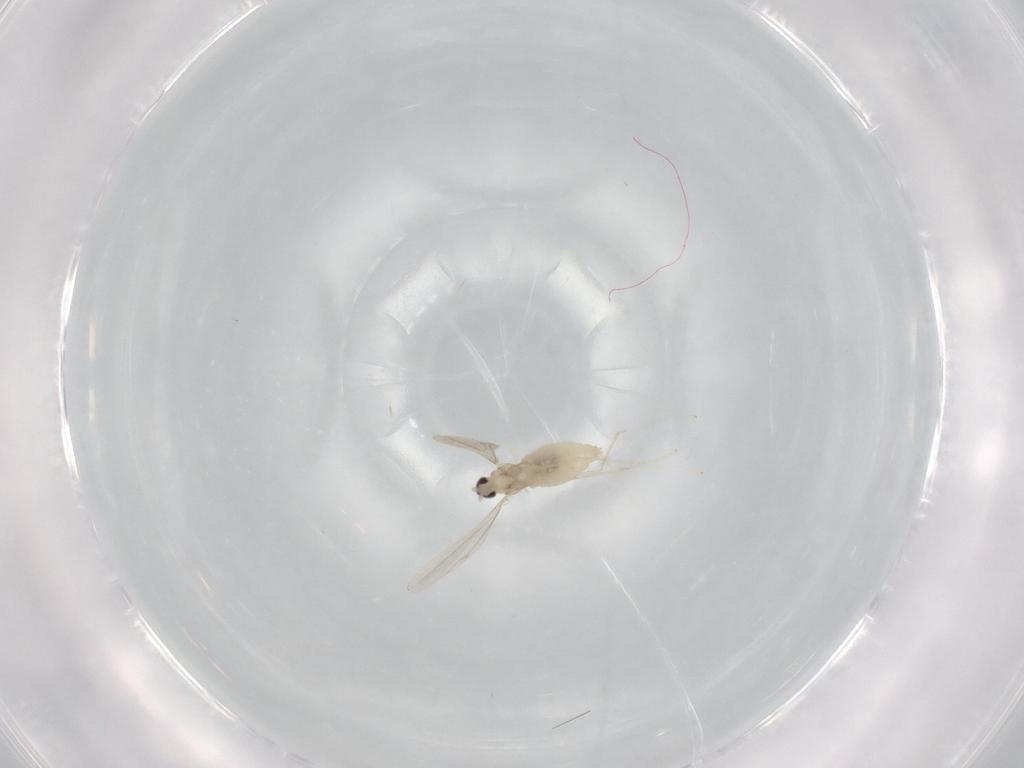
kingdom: Animalia
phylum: Arthropoda
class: Insecta
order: Diptera
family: Cecidomyiidae
